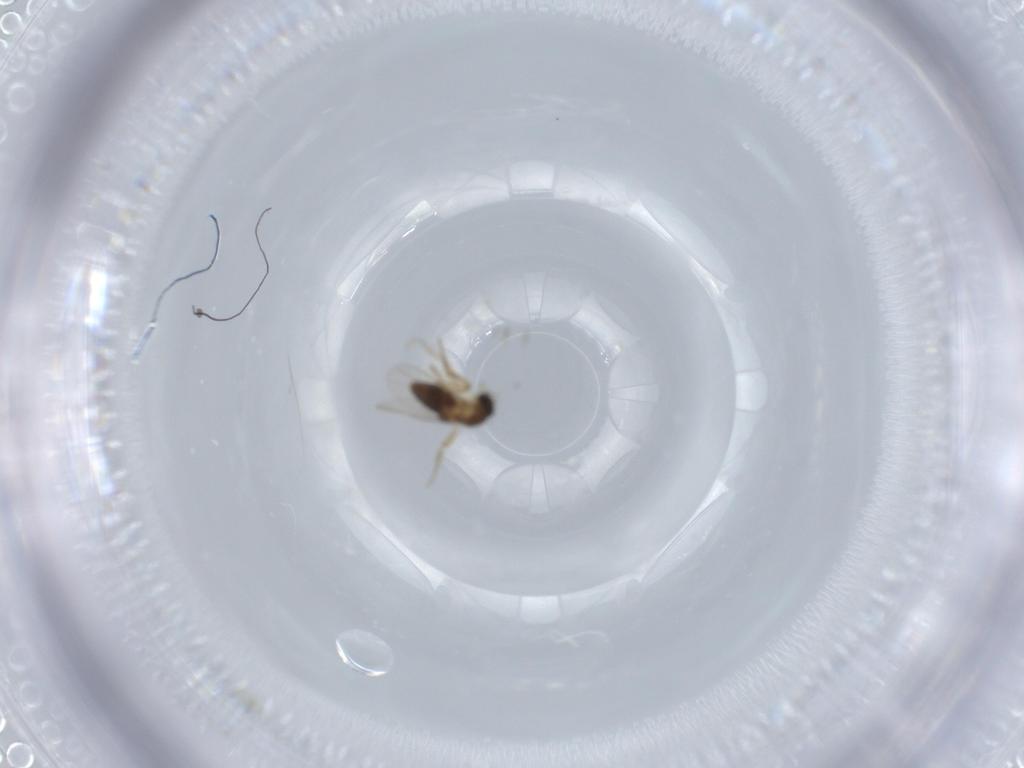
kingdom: Animalia
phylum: Arthropoda
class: Insecta
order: Diptera
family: Phoridae
